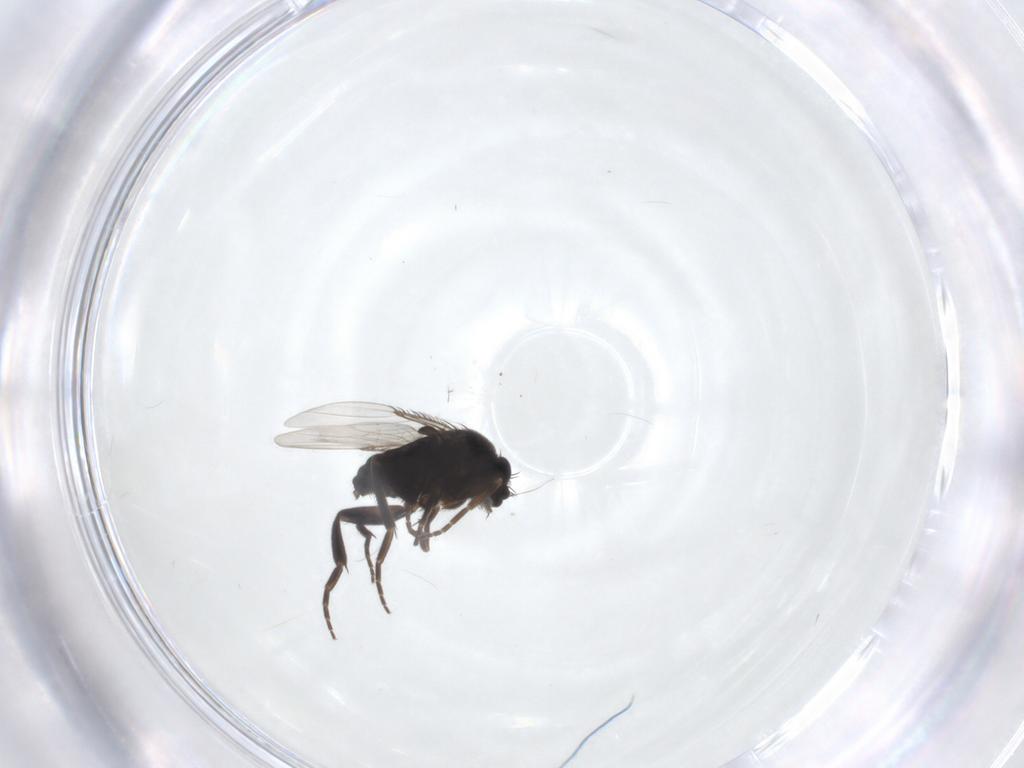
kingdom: Animalia
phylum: Arthropoda
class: Insecta
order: Diptera
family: Phoridae
